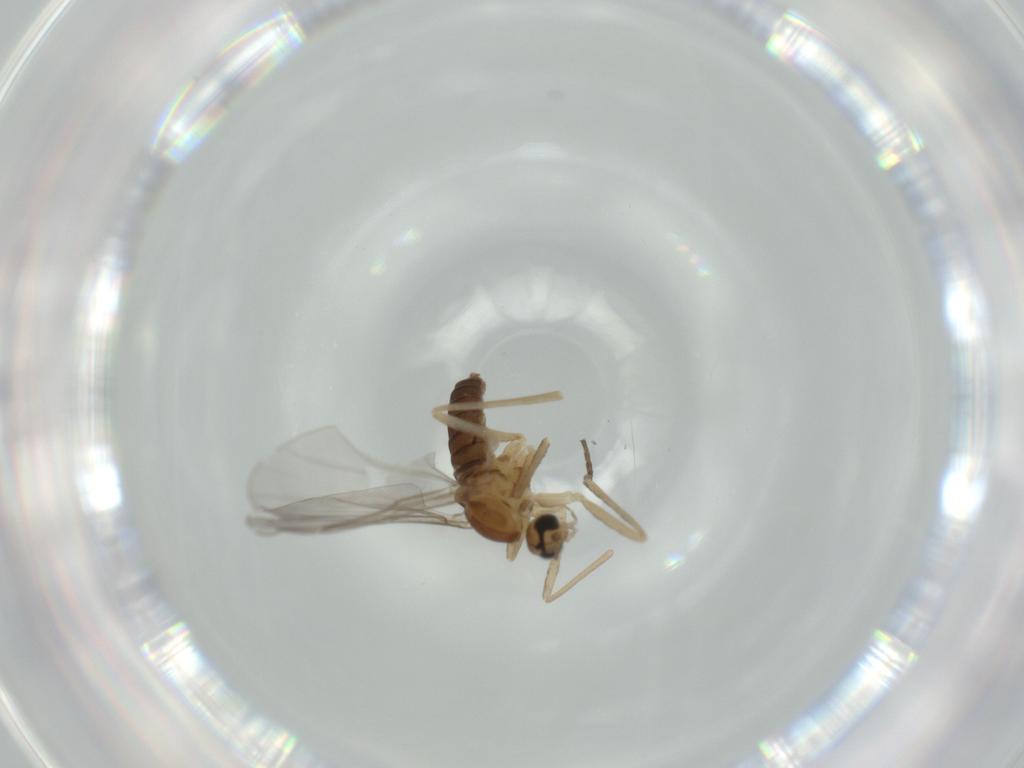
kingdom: Animalia
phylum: Arthropoda
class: Insecta
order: Diptera
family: Cecidomyiidae
